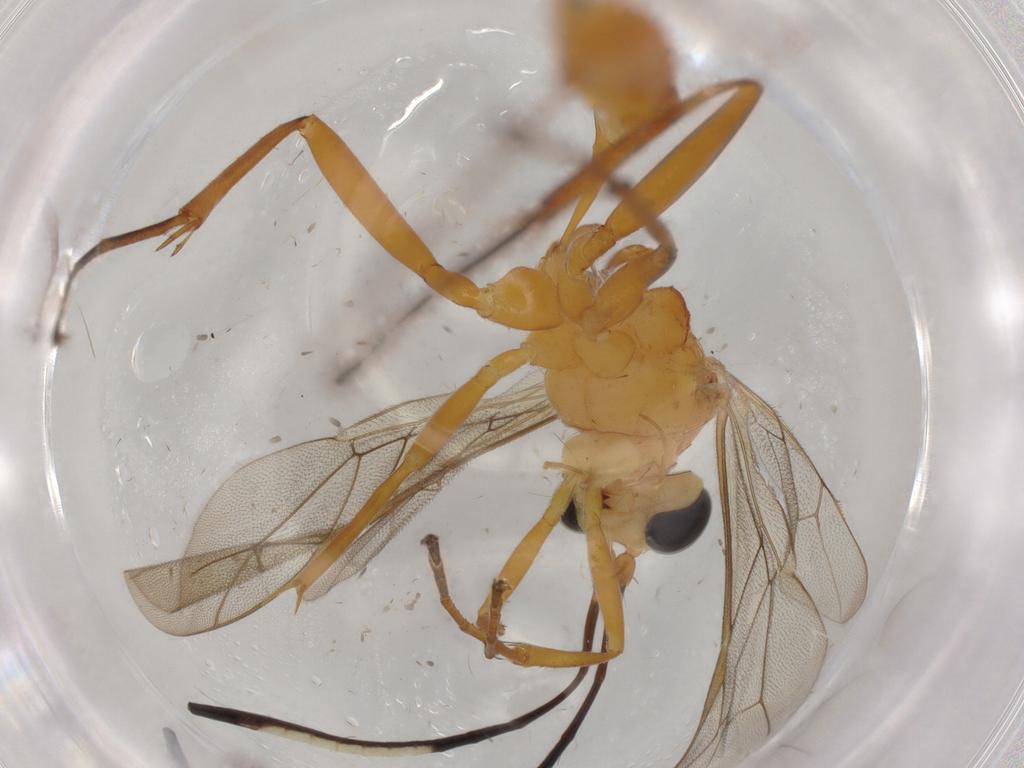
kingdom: Animalia
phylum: Arthropoda
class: Insecta
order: Hymenoptera
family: Ichneumonidae
